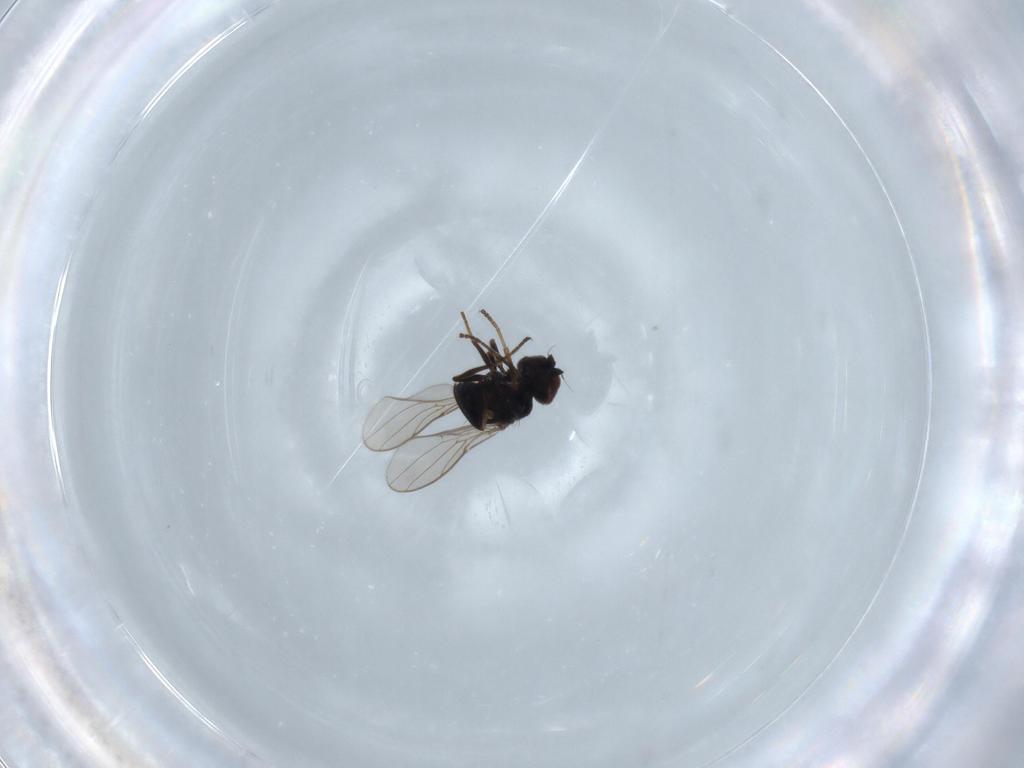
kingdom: Animalia
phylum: Arthropoda
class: Insecta
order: Diptera
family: Chloropidae
